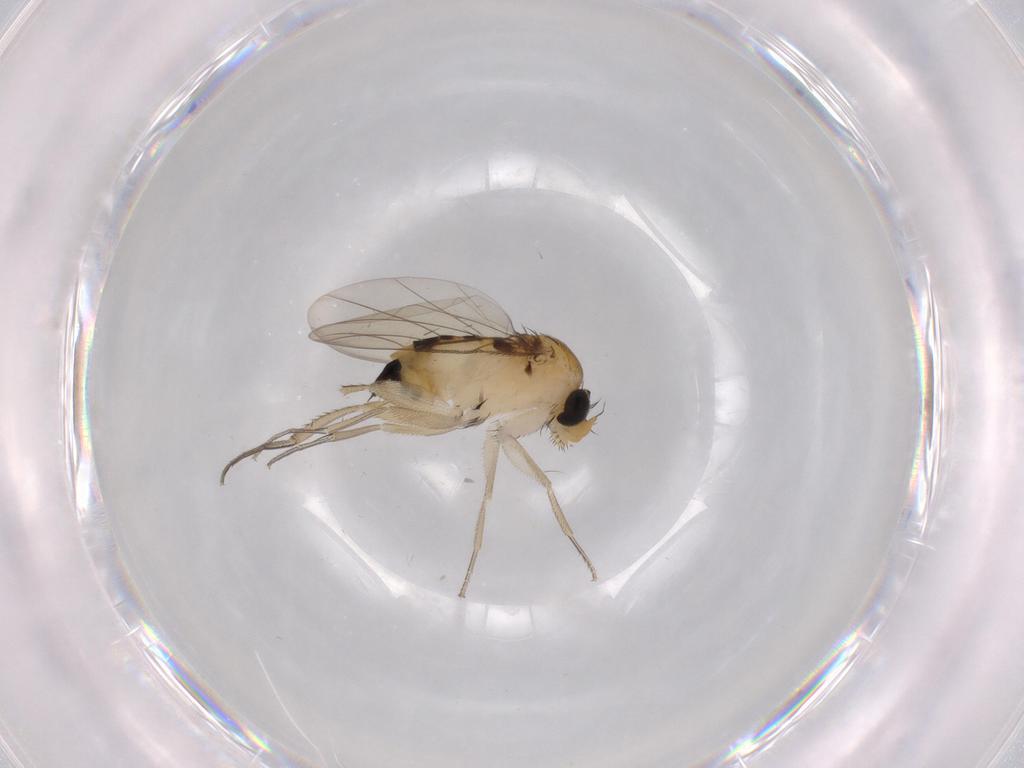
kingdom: Animalia
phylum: Arthropoda
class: Insecta
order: Diptera
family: Phoridae
